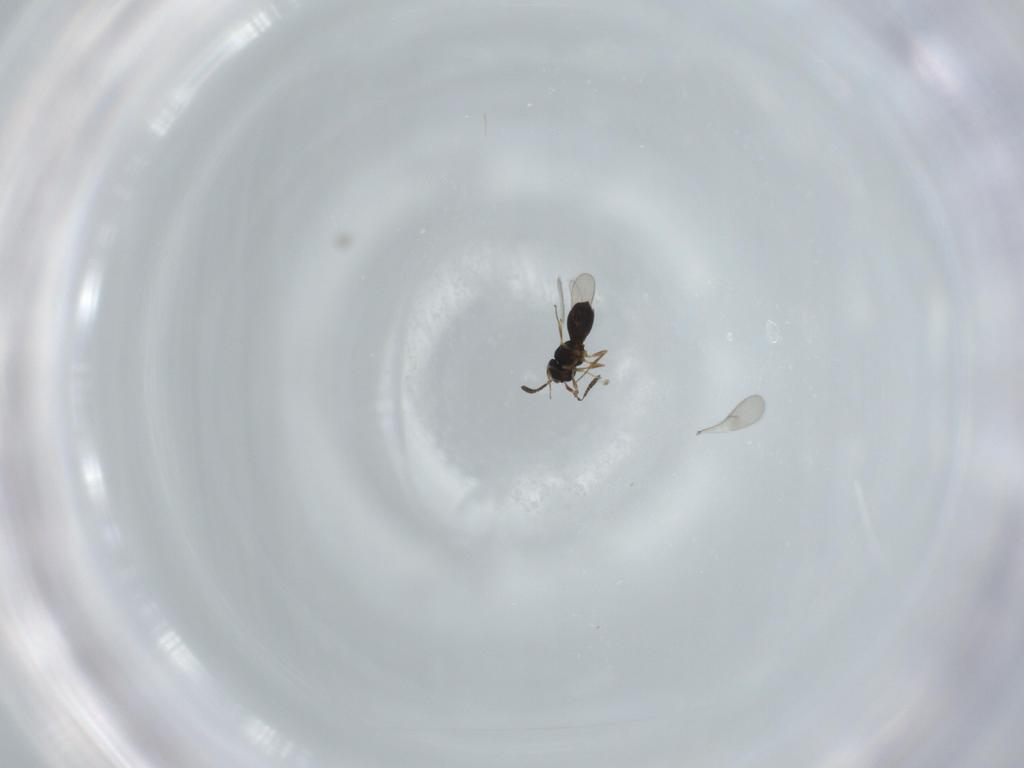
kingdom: Animalia
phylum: Arthropoda
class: Insecta
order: Hymenoptera
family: Scelionidae
